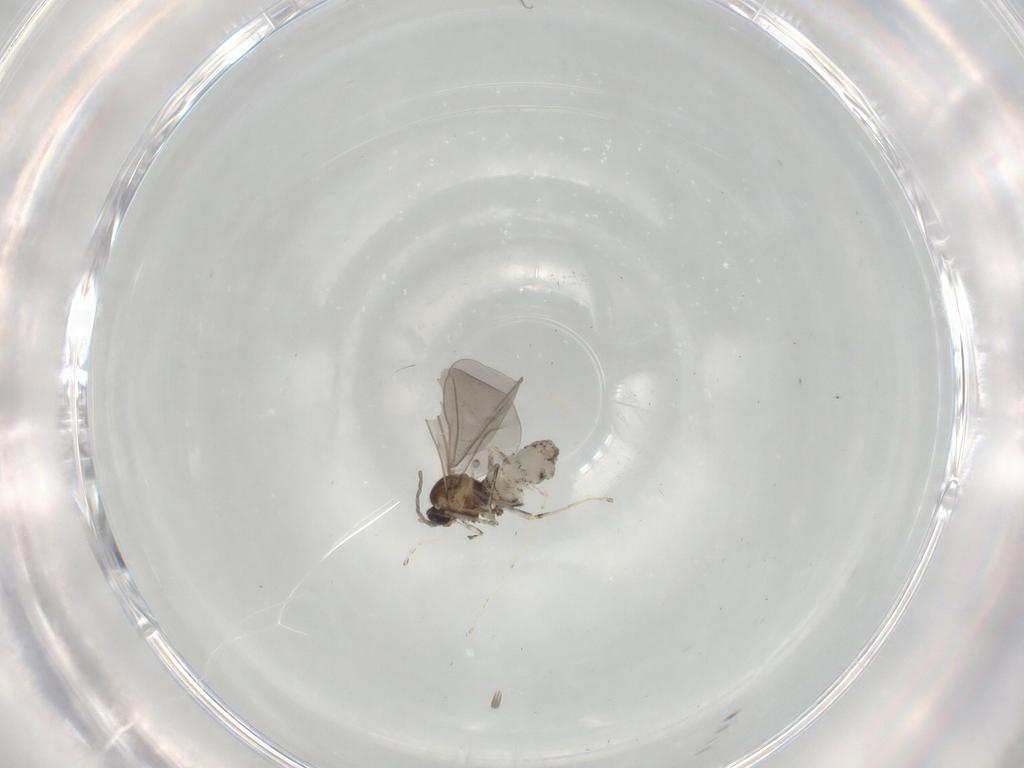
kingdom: Animalia
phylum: Arthropoda
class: Insecta
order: Diptera
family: Cecidomyiidae
